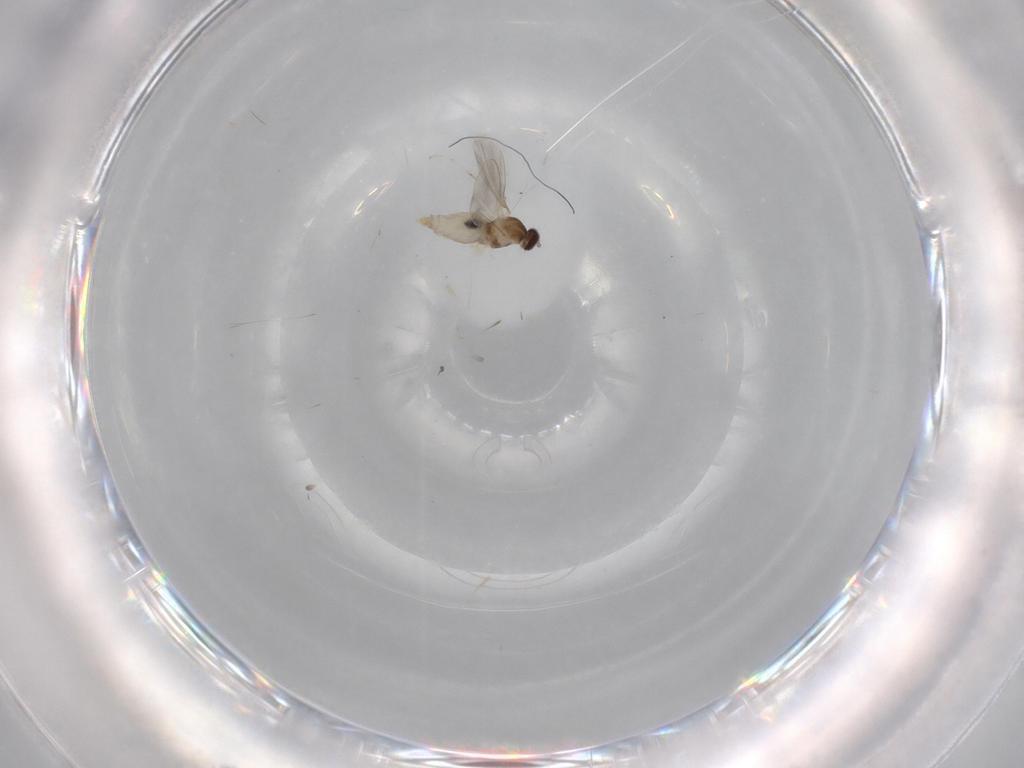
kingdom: Animalia
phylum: Arthropoda
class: Insecta
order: Diptera
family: Cecidomyiidae
